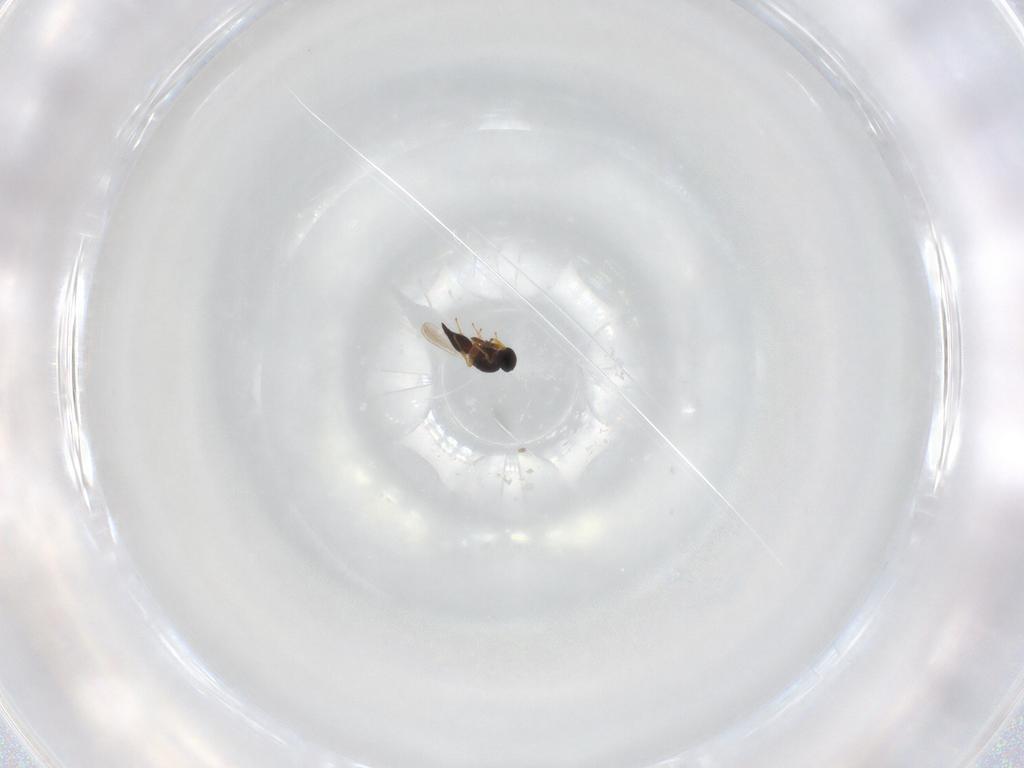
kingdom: Animalia
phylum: Arthropoda
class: Insecta
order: Hymenoptera
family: Platygastridae
